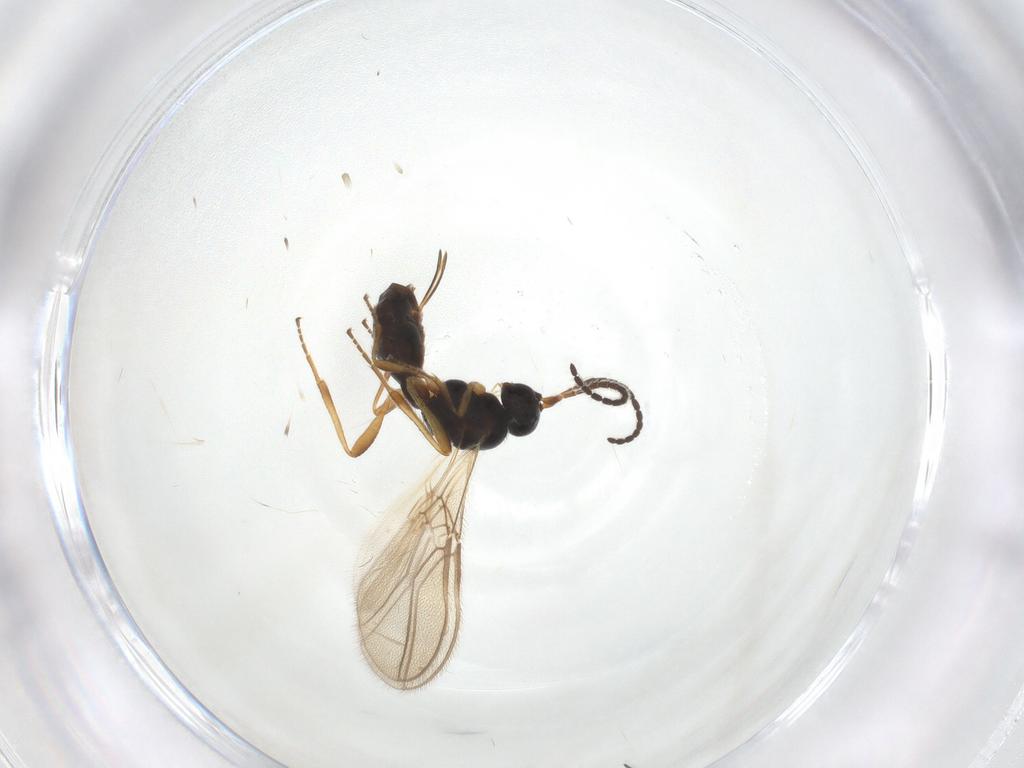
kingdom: Animalia
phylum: Arthropoda
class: Insecta
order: Hymenoptera
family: Braconidae
